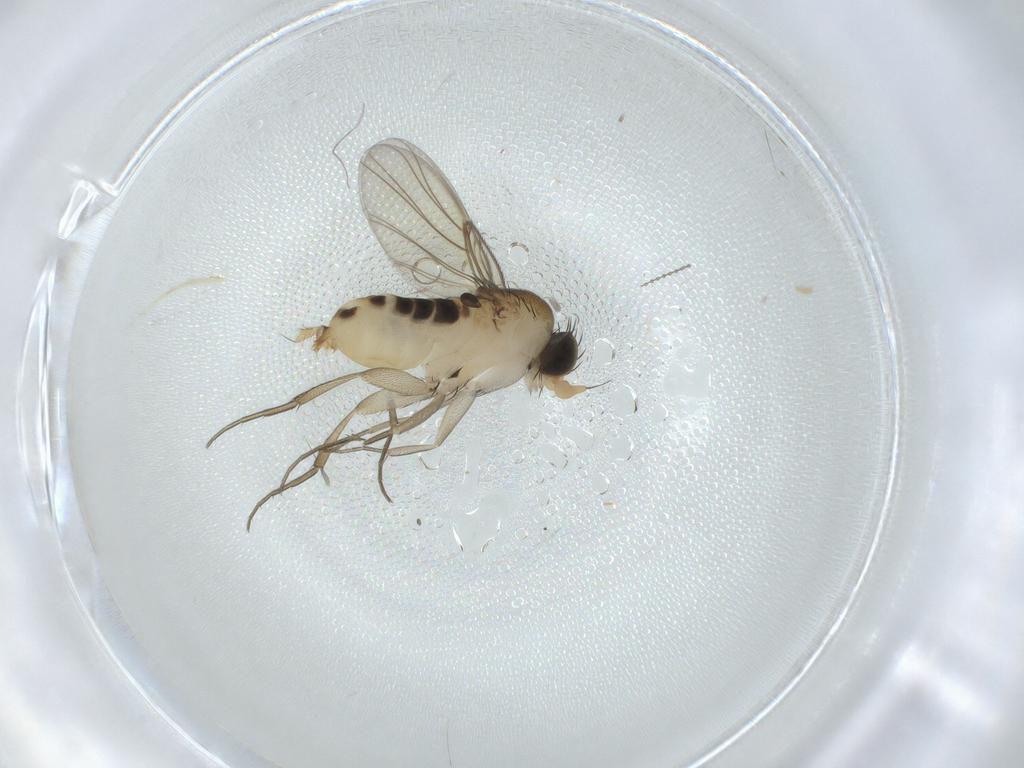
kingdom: Animalia
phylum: Arthropoda
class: Insecta
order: Diptera
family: Phoridae
